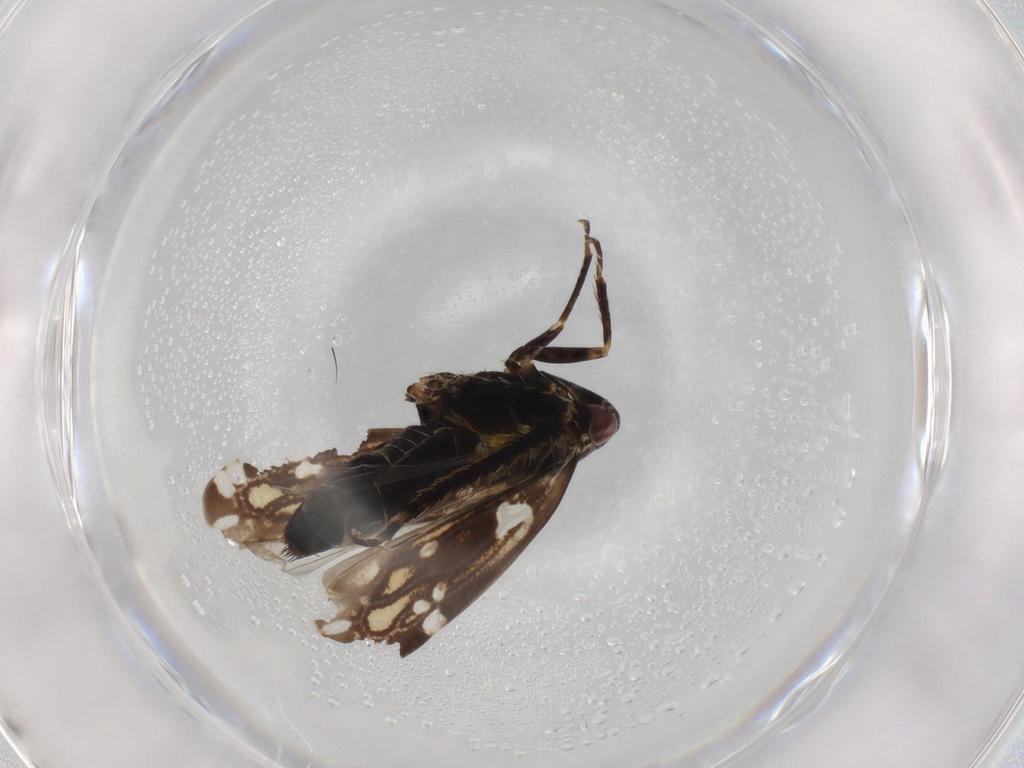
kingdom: Animalia
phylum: Arthropoda
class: Insecta
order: Hemiptera
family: Cicadellidae
